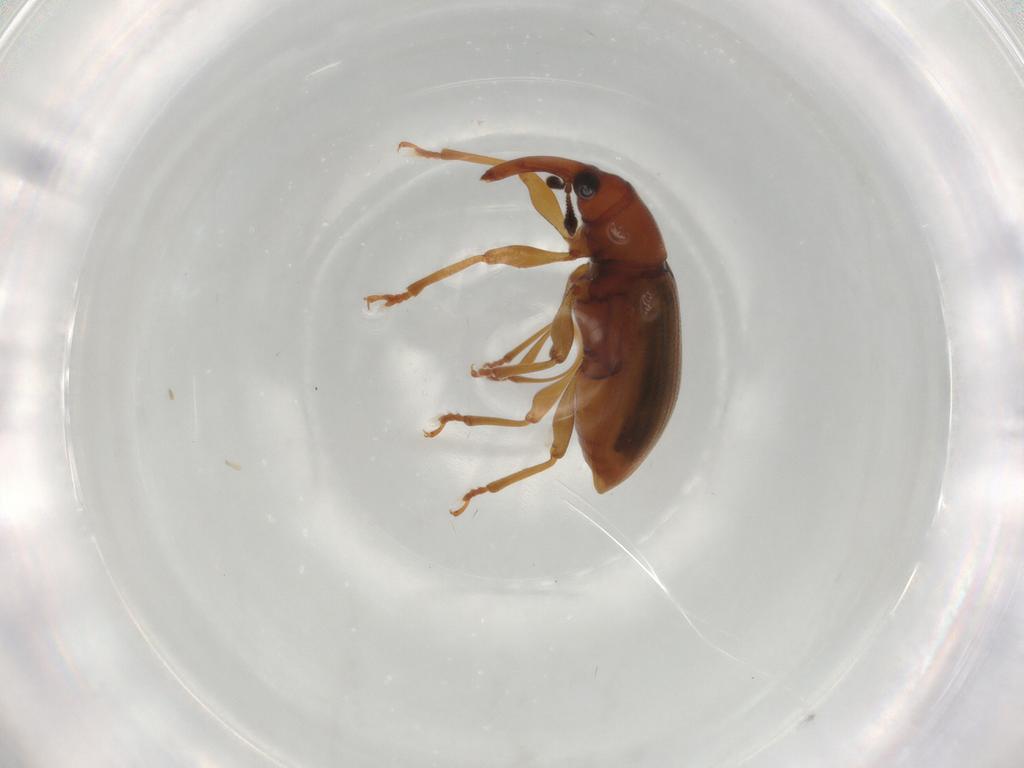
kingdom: Animalia
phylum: Arthropoda
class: Insecta
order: Coleoptera
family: Curculionidae
